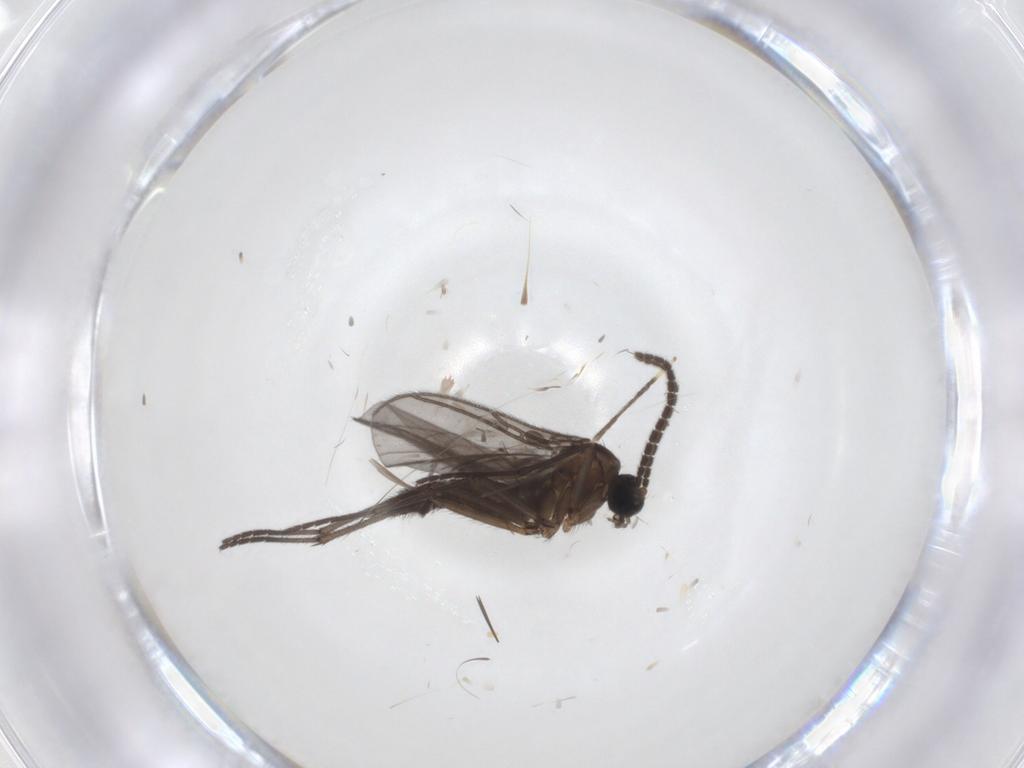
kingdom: Animalia
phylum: Arthropoda
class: Insecta
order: Diptera
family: Sciaridae
